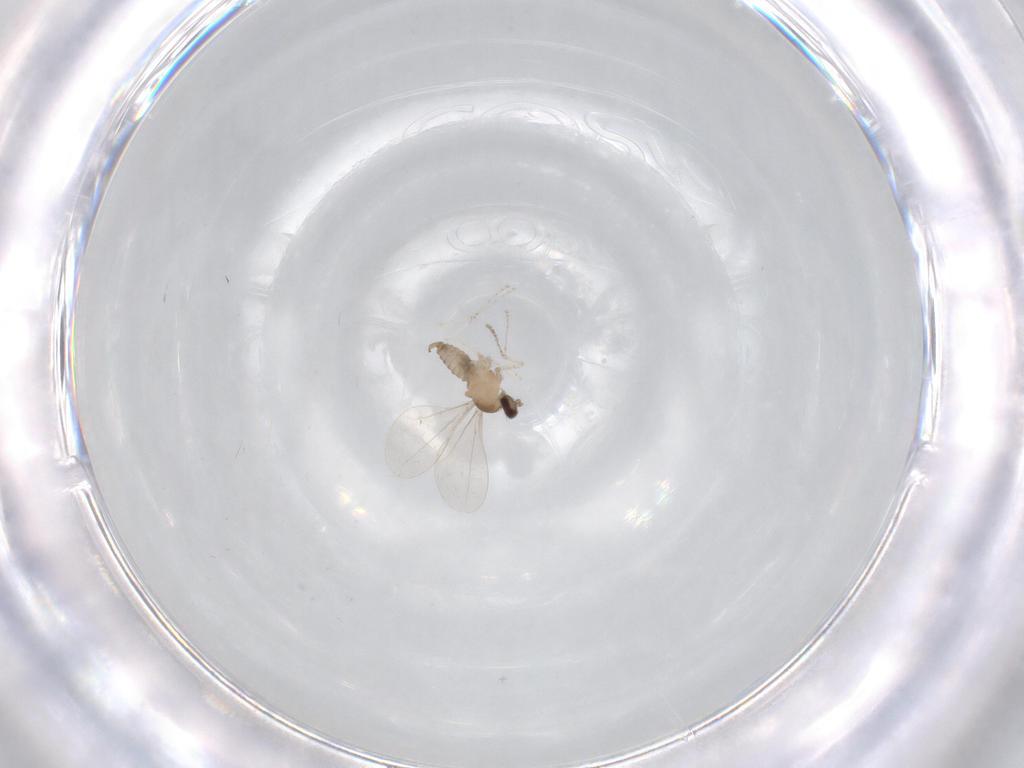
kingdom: Animalia
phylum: Arthropoda
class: Insecta
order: Diptera
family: Cecidomyiidae
